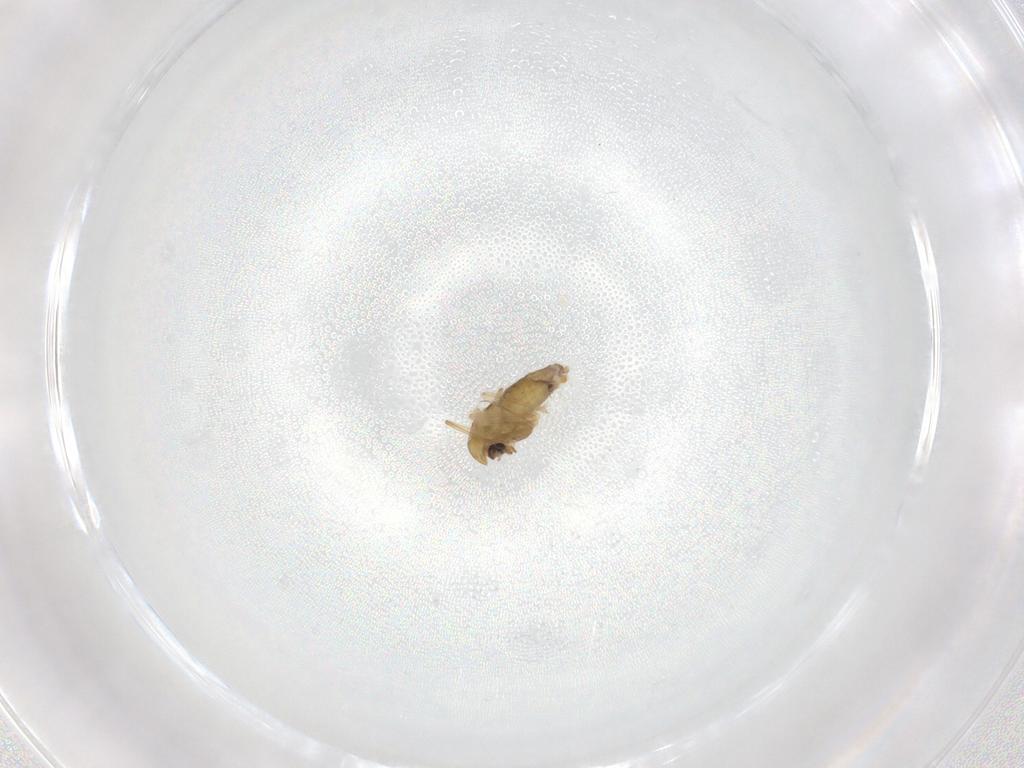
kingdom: Animalia
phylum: Arthropoda
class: Insecta
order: Diptera
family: Chironomidae
